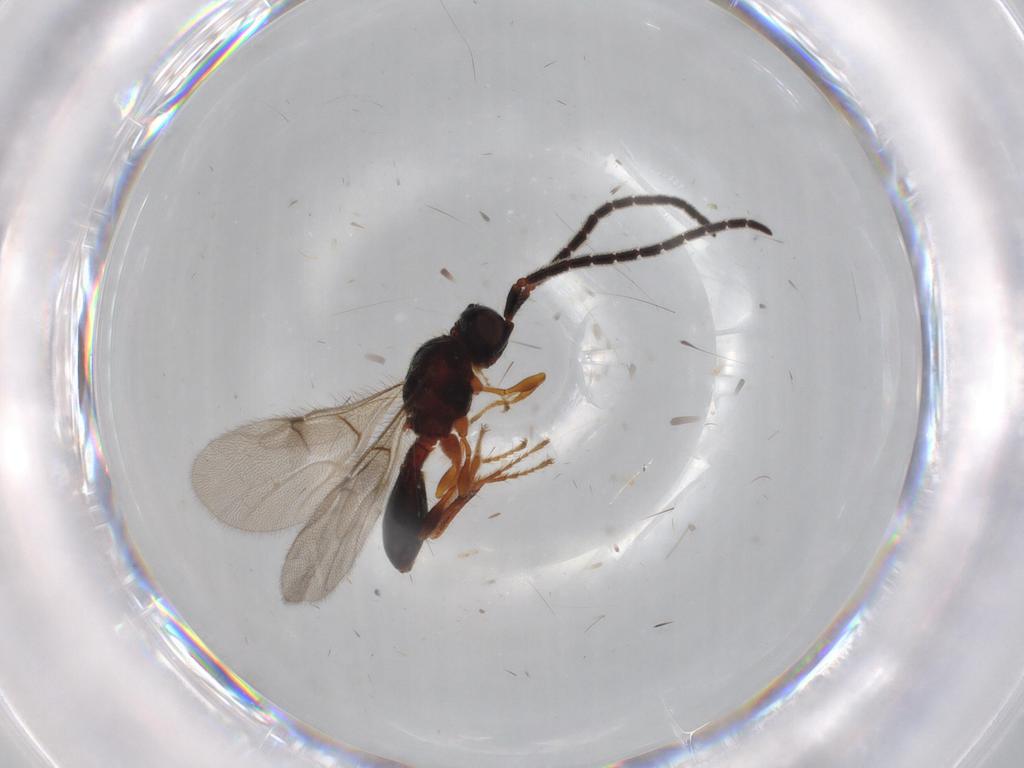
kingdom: Animalia
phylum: Arthropoda
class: Insecta
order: Hymenoptera
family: Diapriidae
